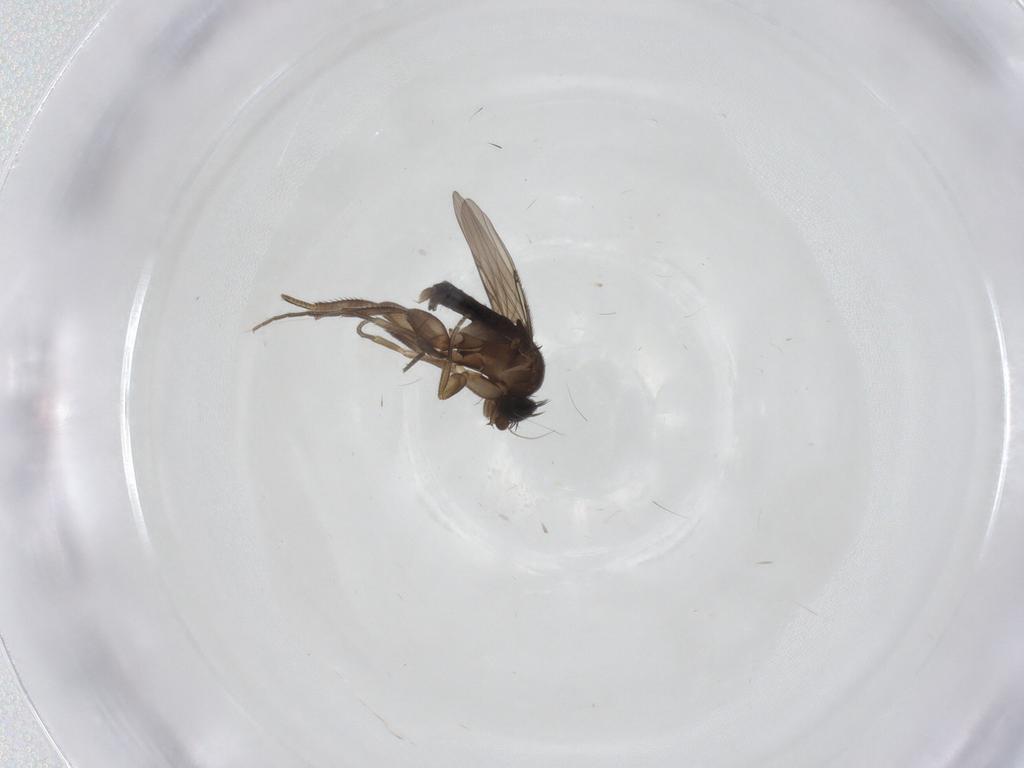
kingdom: Animalia
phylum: Arthropoda
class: Insecta
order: Diptera
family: Phoridae
